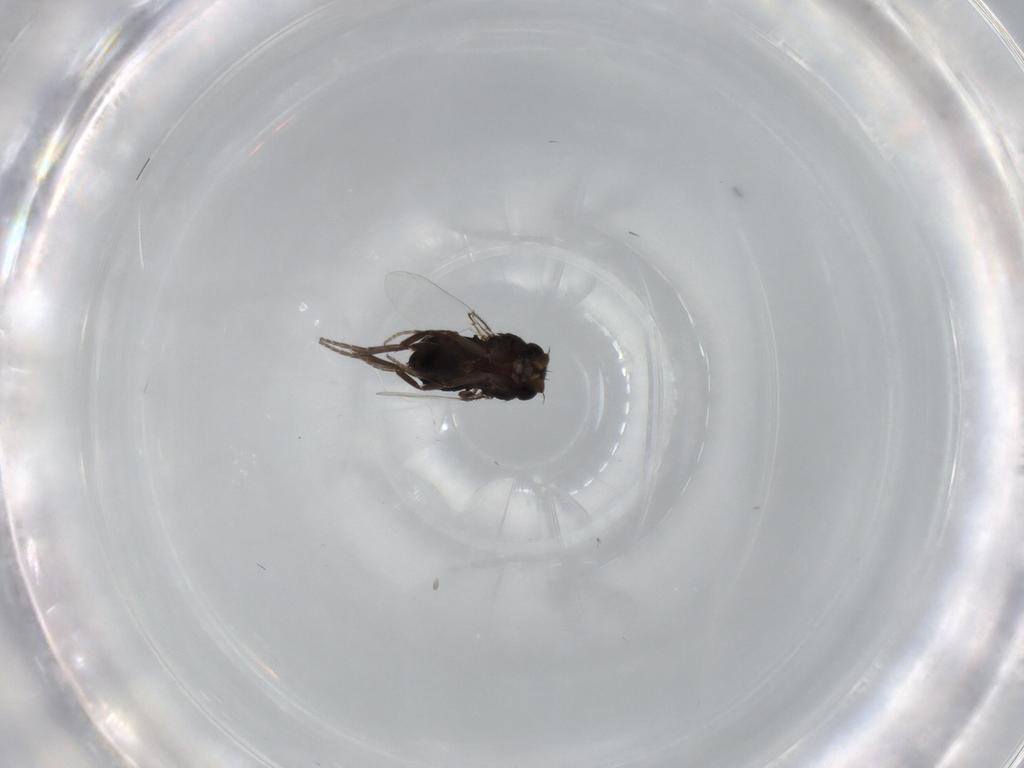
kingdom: Animalia
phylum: Arthropoda
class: Insecta
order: Diptera
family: Phoridae
